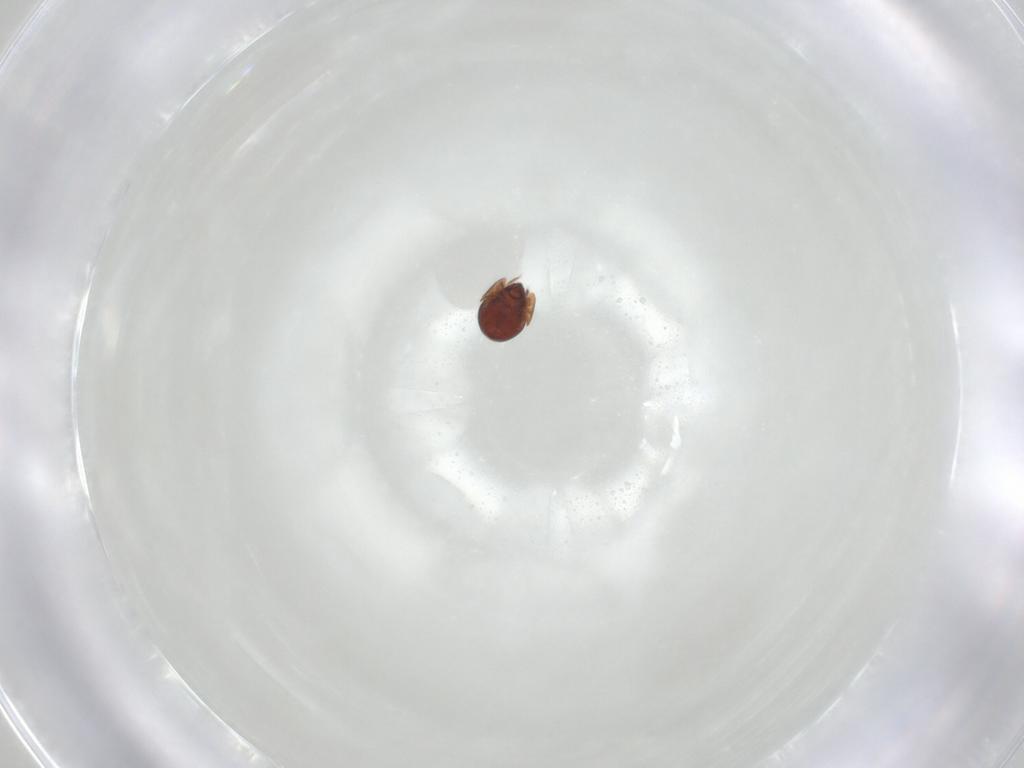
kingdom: Animalia
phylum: Arthropoda
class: Arachnida
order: Sarcoptiformes
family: Galumnidae
